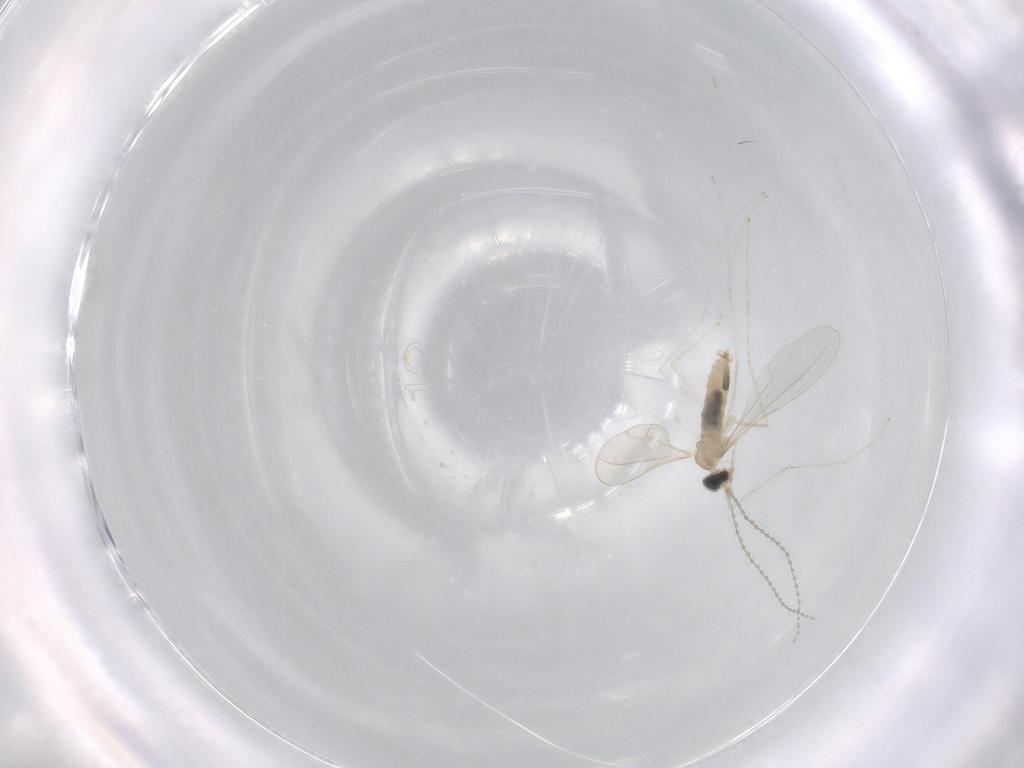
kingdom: Animalia
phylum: Arthropoda
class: Insecta
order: Diptera
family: Cecidomyiidae
